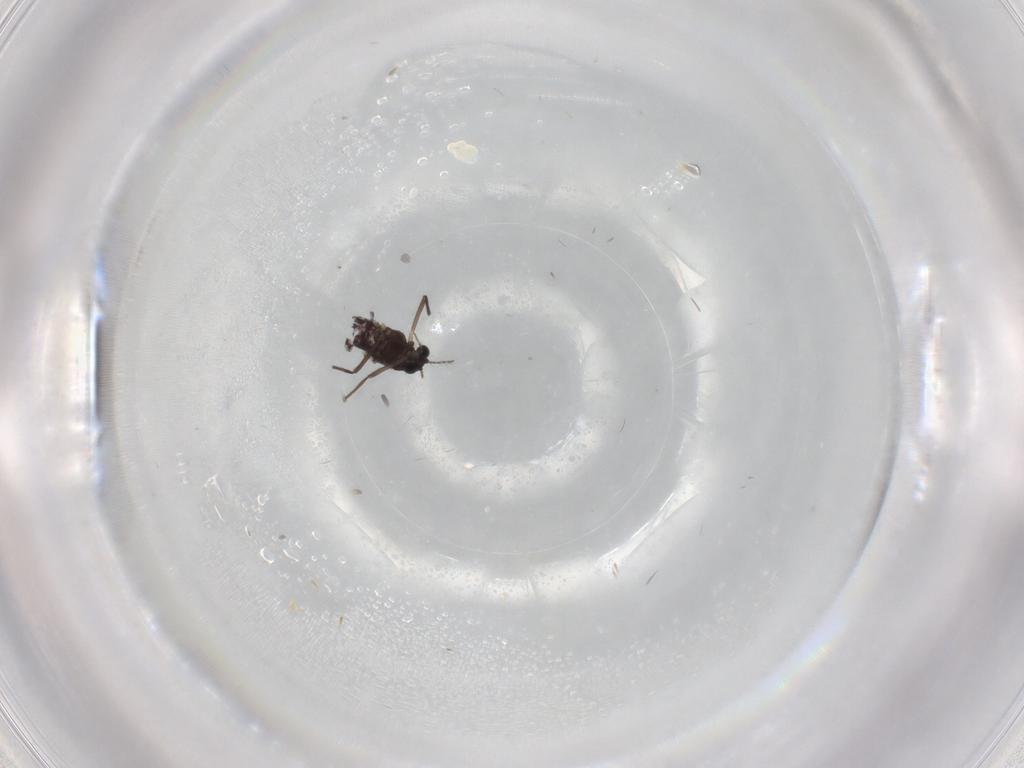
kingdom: Animalia
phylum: Arthropoda
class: Insecta
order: Diptera
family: Chironomidae
